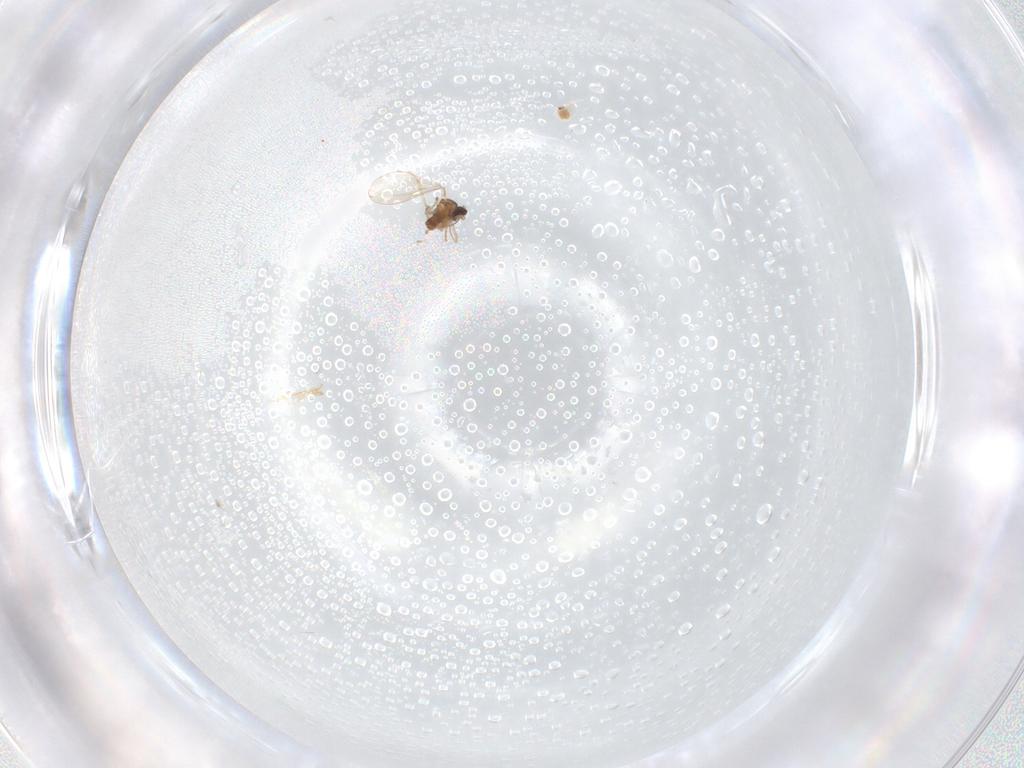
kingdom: Animalia
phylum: Arthropoda
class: Insecta
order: Diptera
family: Cecidomyiidae
